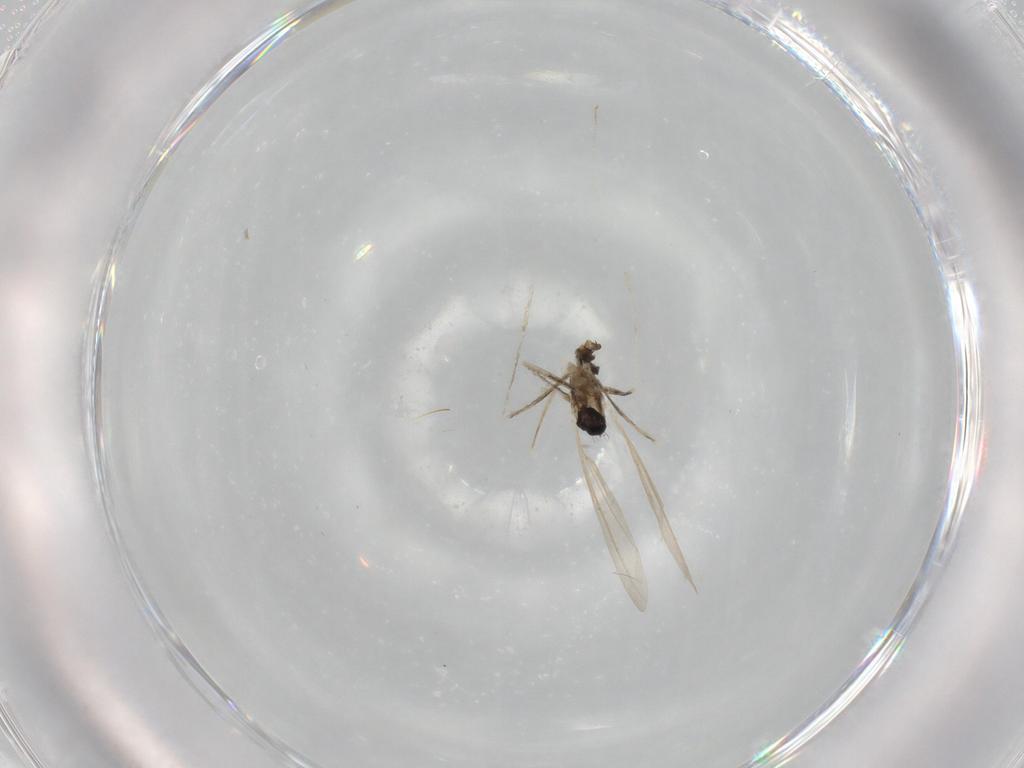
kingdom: Animalia
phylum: Arthropoda
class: Insecta
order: Diptera
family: Cecidomyiidae
